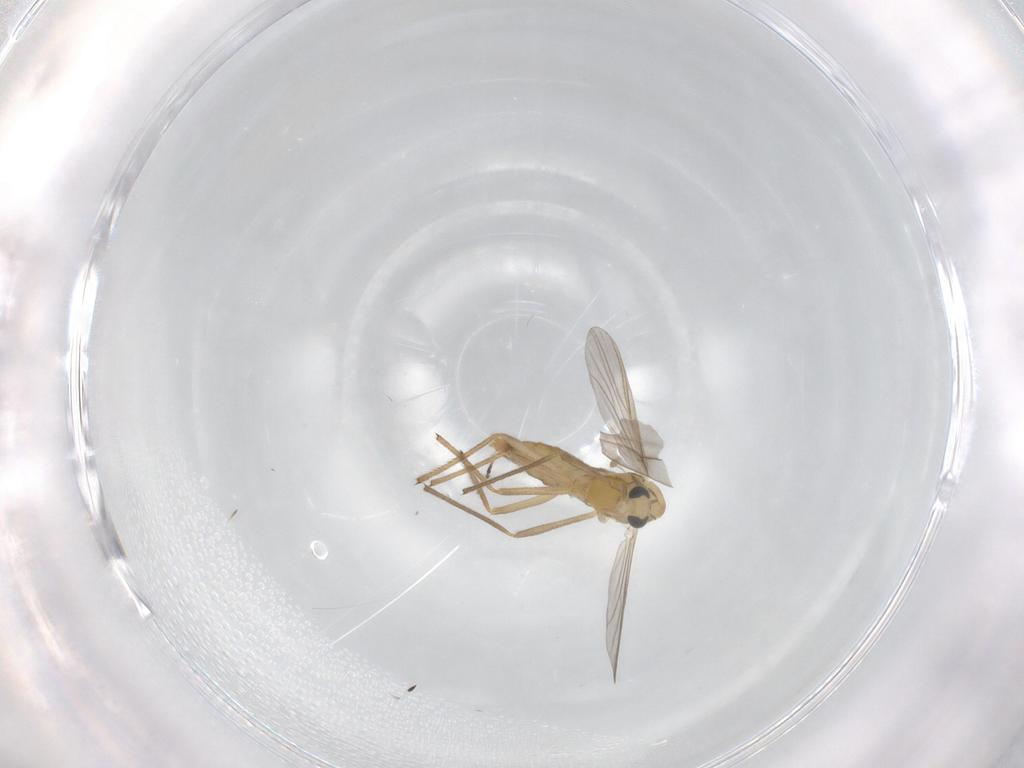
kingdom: Animalia
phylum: Arthropoda
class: Insecta
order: Diptera
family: Chironomidae
